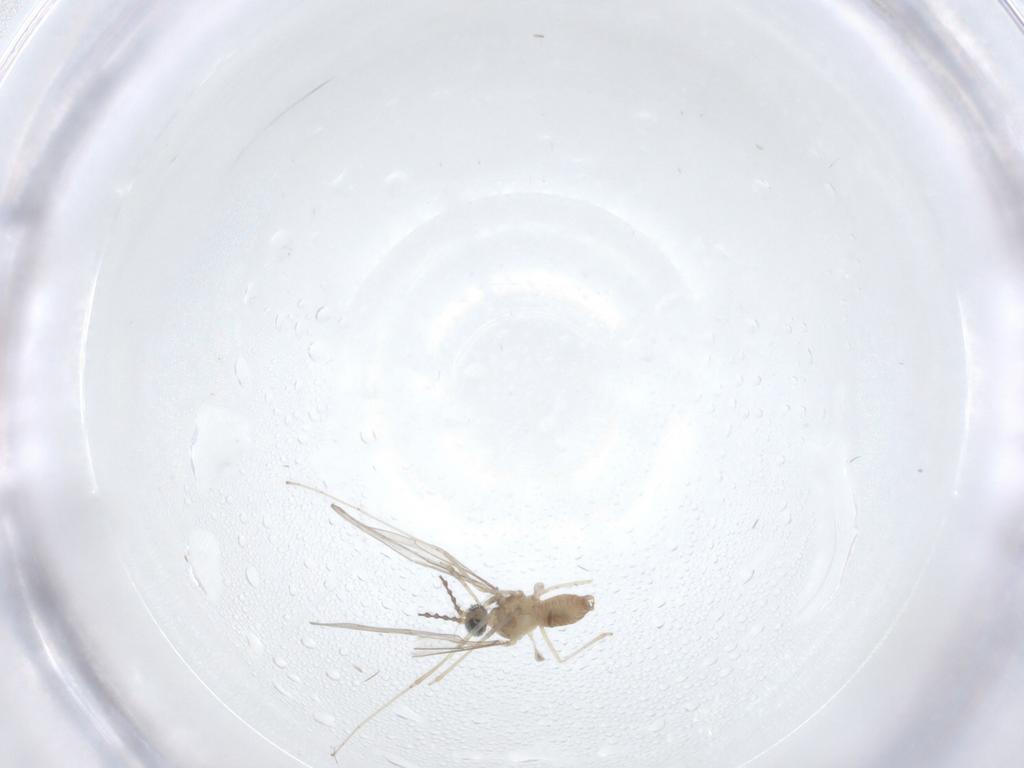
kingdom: Animalia
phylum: Arthropoda
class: Insecta
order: Diptera
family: Cecidomyiidae
